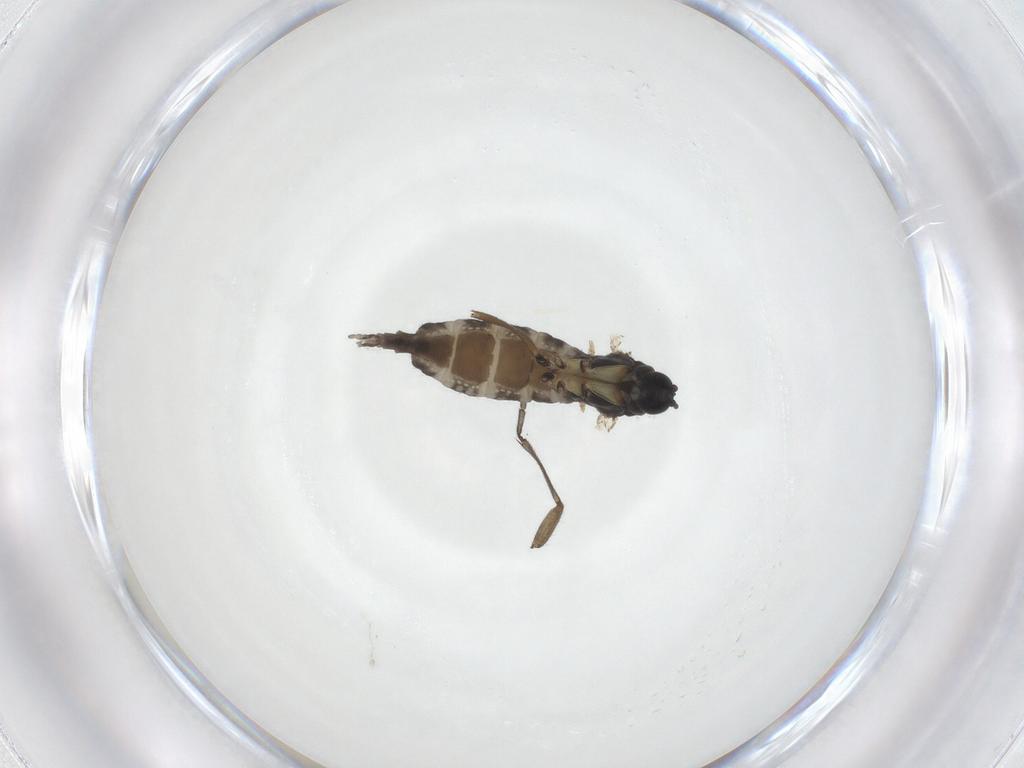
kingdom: Animalia
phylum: Arthropoda
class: Insecta
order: Diptera
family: Sciaridae
